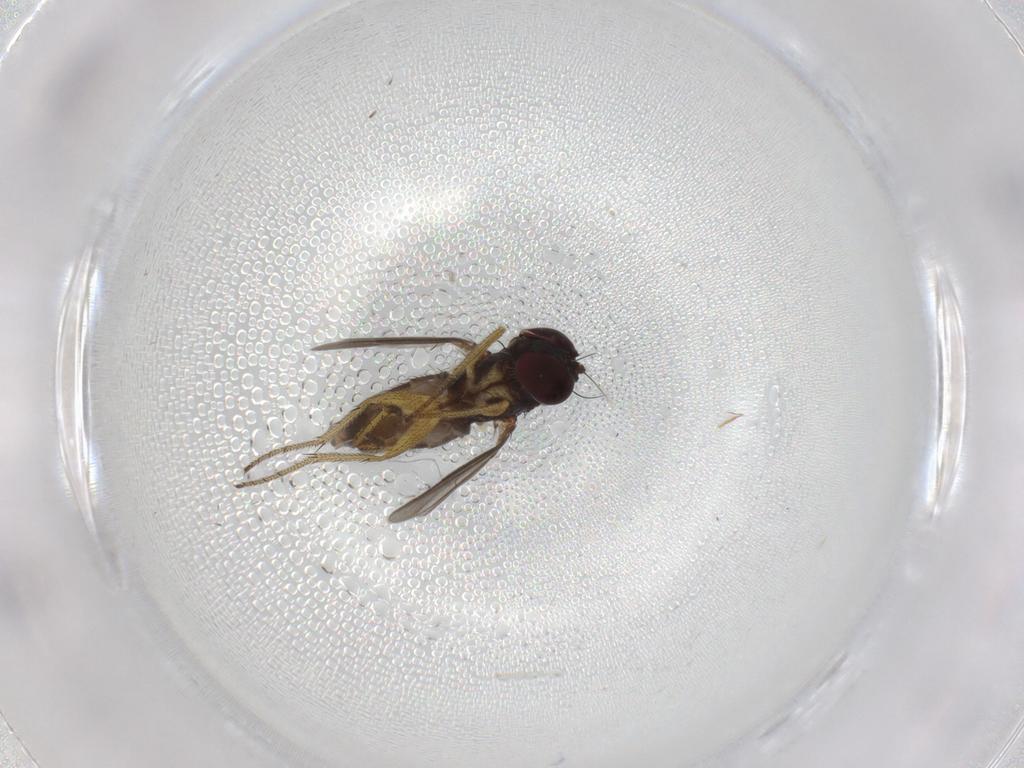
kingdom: Animalia
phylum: Arthropoda
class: Insecta
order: Diptera
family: Dolichopodidae
